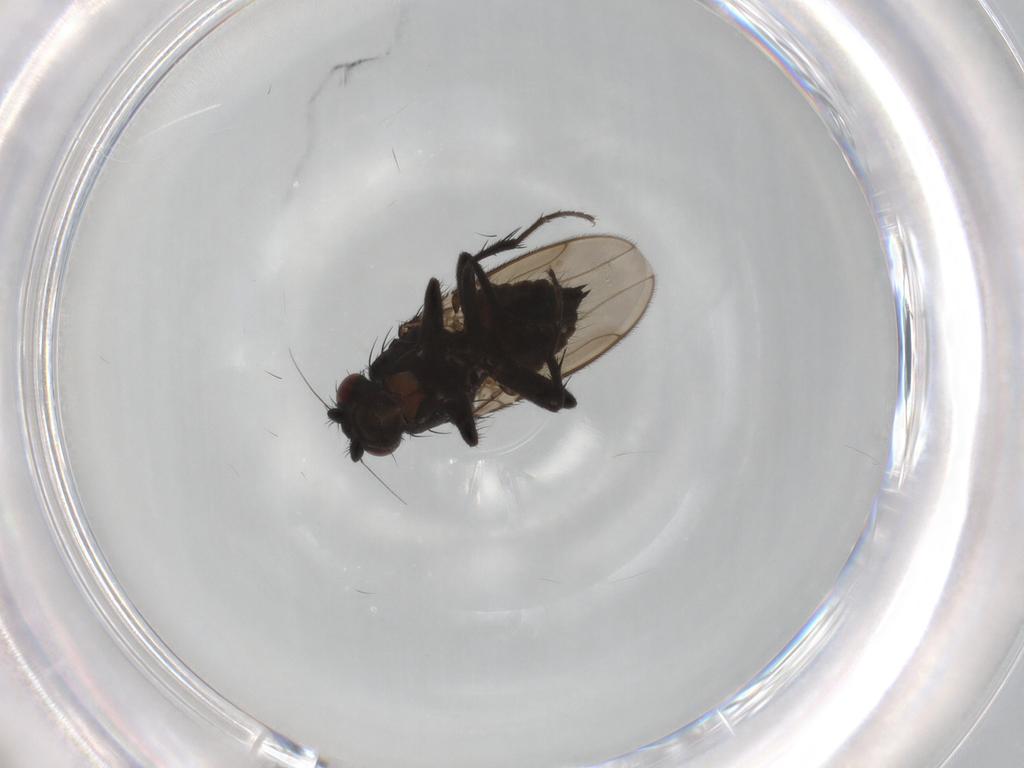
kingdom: Animalia
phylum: Arthropoda
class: Insecta
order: Diptera
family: Sphaeroceridae
